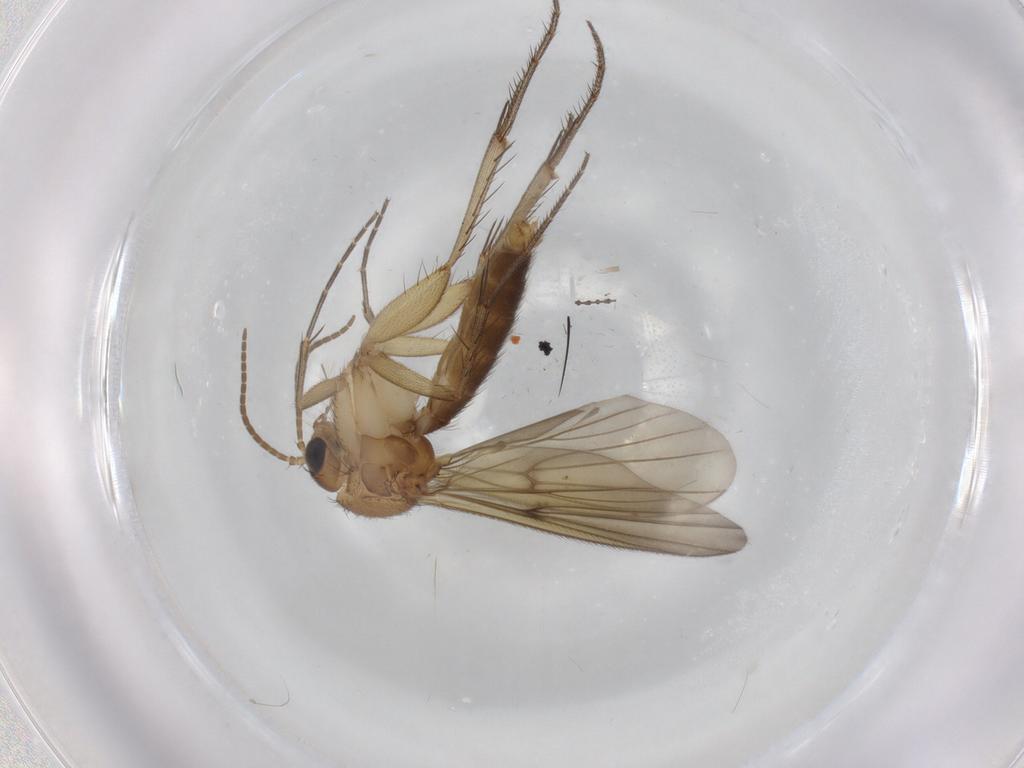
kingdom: Animalia
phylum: Arthropoda
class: Insecta
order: Diptera
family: Mycetophilidae
